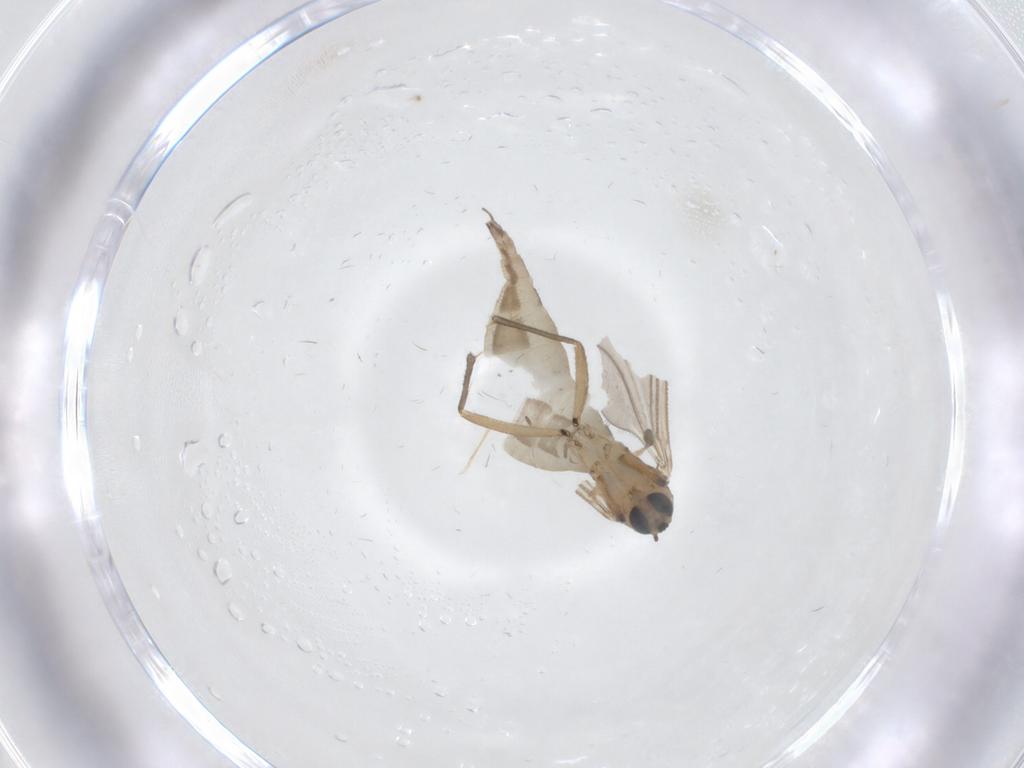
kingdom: Animalia
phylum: Arthropoda
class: Insecta
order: Diptera
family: Sciaridae
